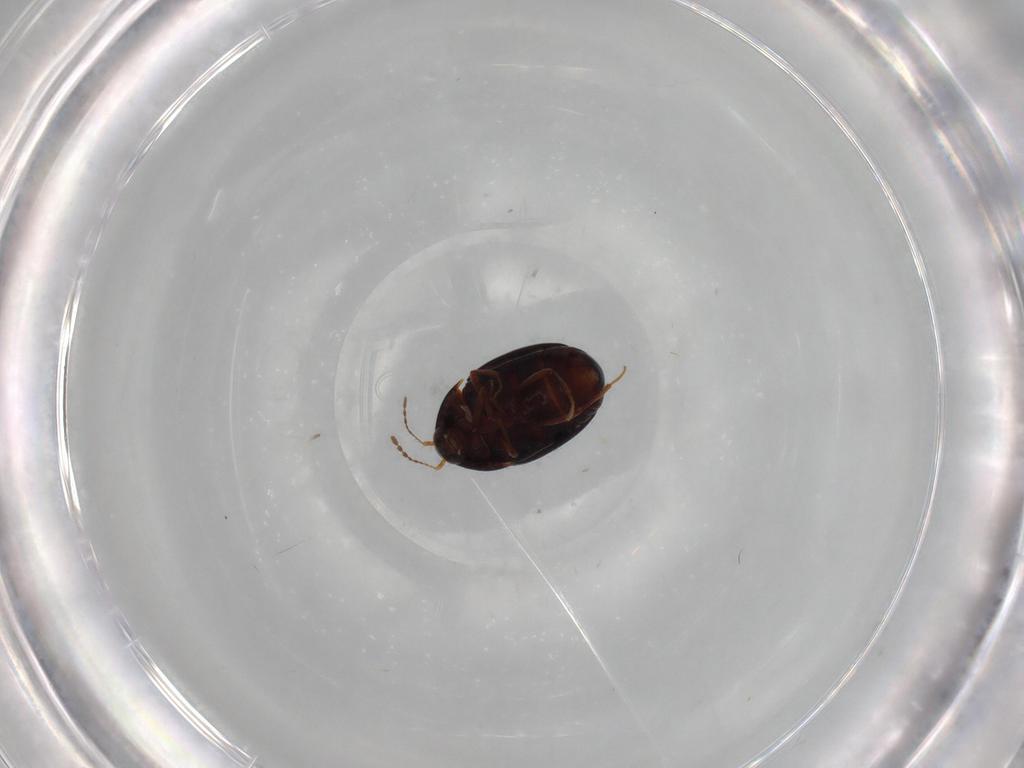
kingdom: Animalia
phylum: Arthropoda
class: Insecta
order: Coleoptera
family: Staphylinidae
